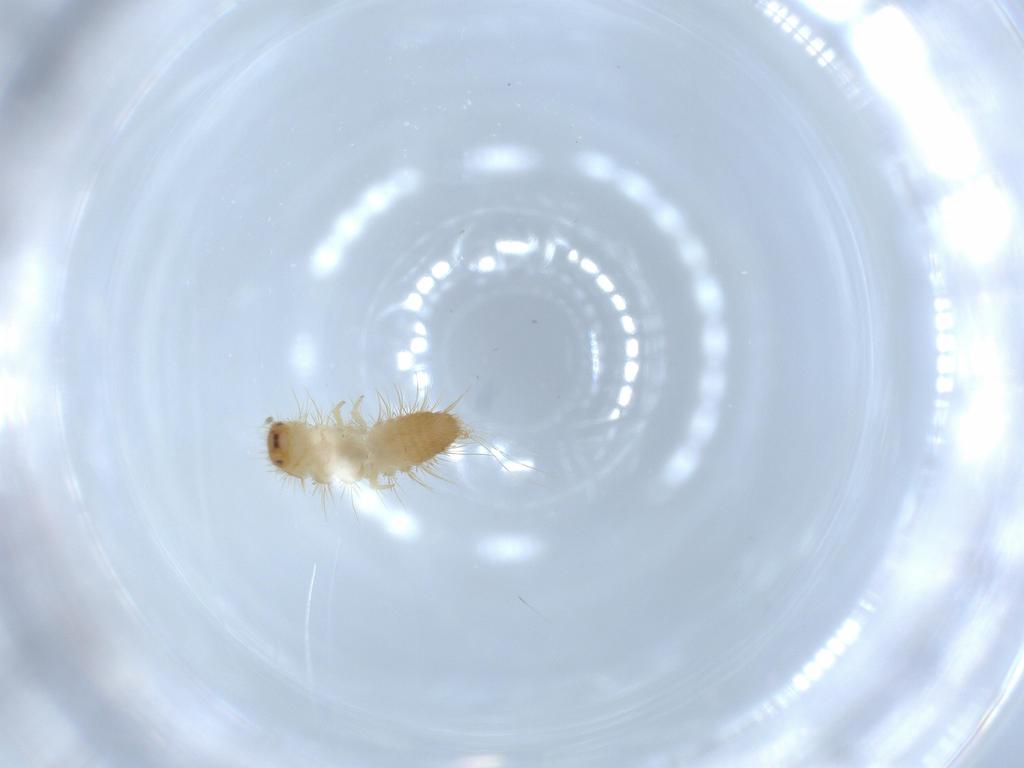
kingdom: Animalia
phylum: Arthropoda
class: Insecta
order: Coleoptera
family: Dermestidae
